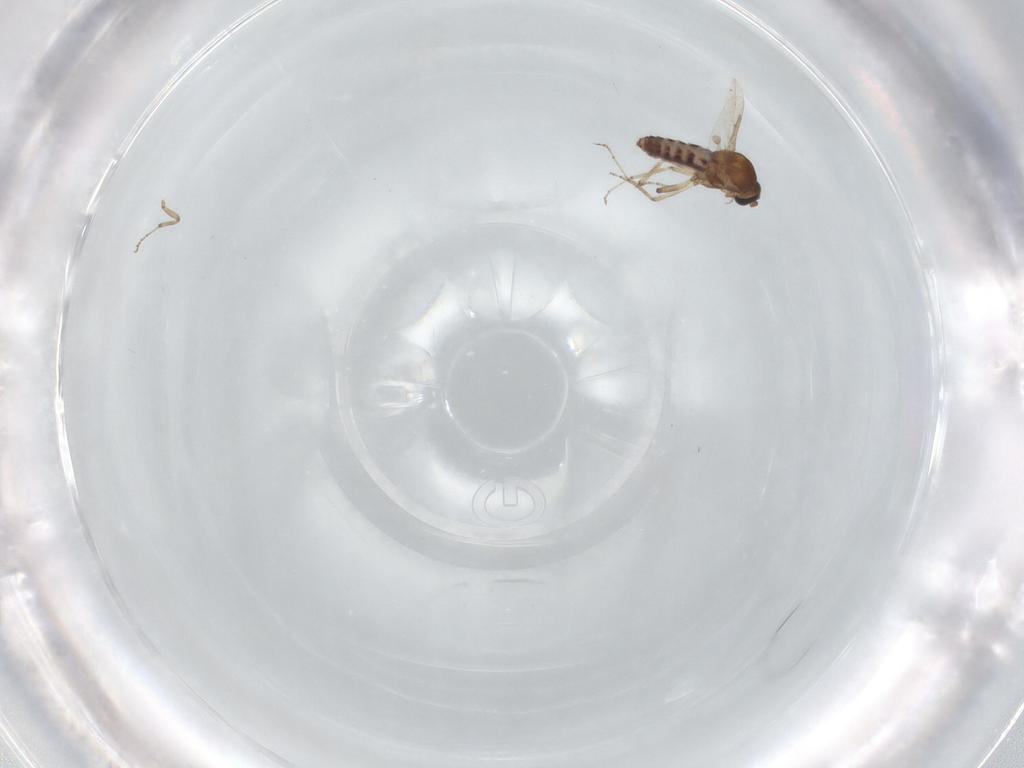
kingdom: Animalia
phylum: Arthropoda
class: Insecta
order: Diptera
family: Ceratopogonidae
